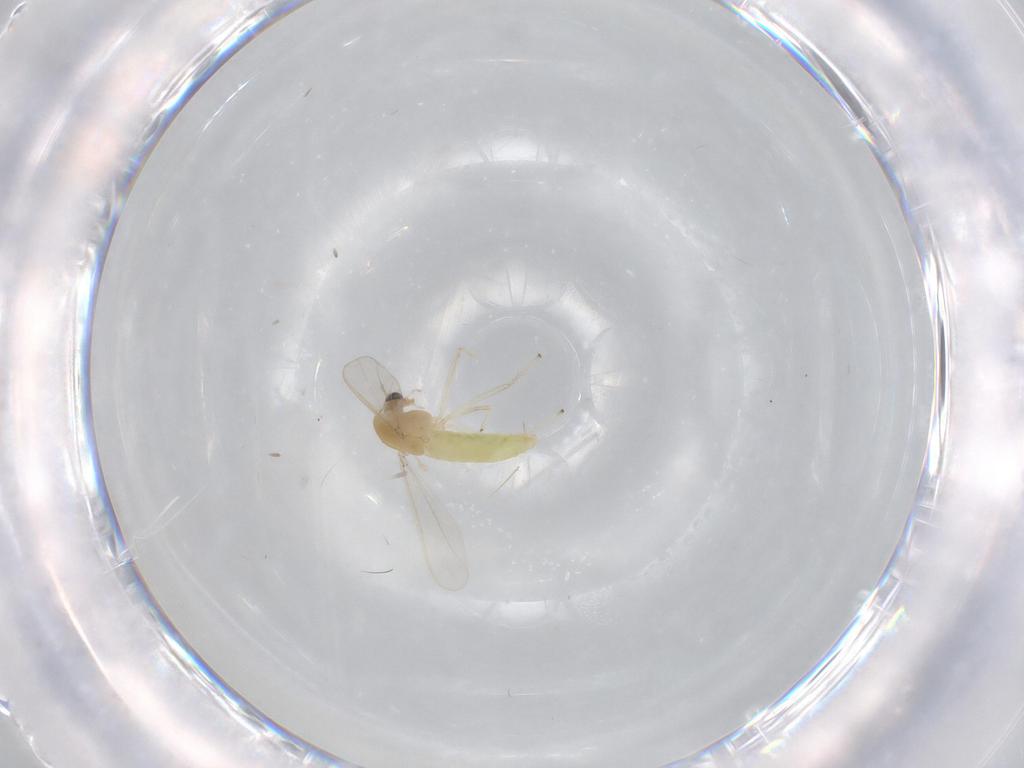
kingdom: Animalia
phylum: Arthropoda
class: Insecta
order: Diptera
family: Chironomidae
